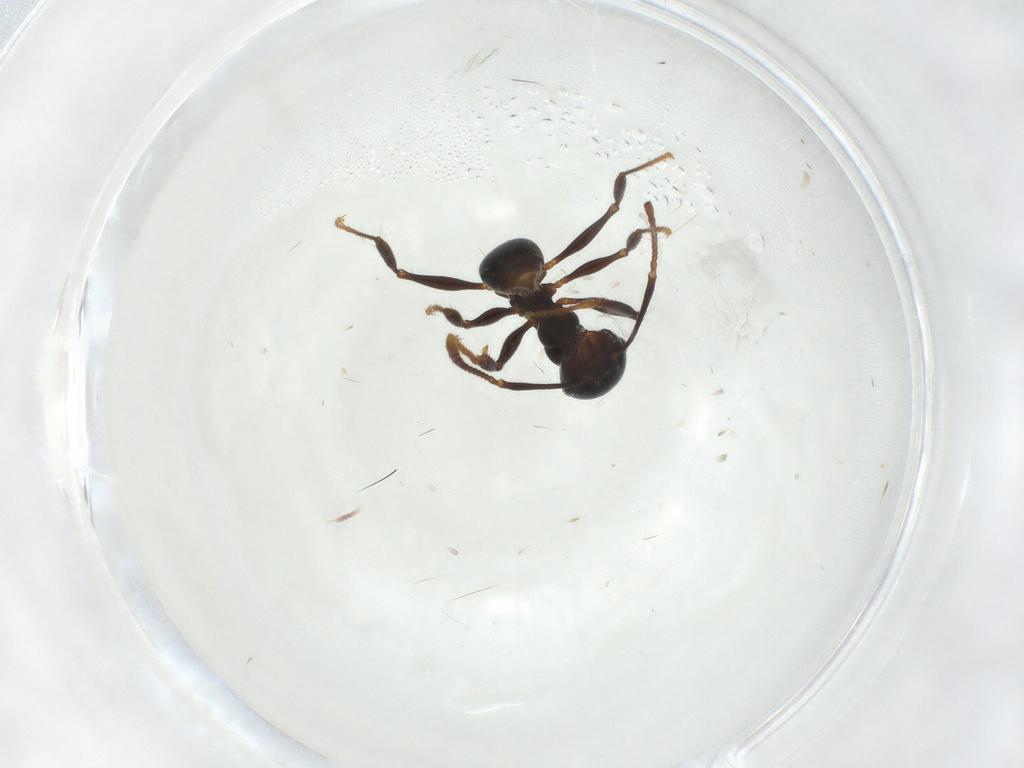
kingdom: Animalia
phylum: Arthropoda
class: Insecta
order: Hymenoptera
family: Formicidae
